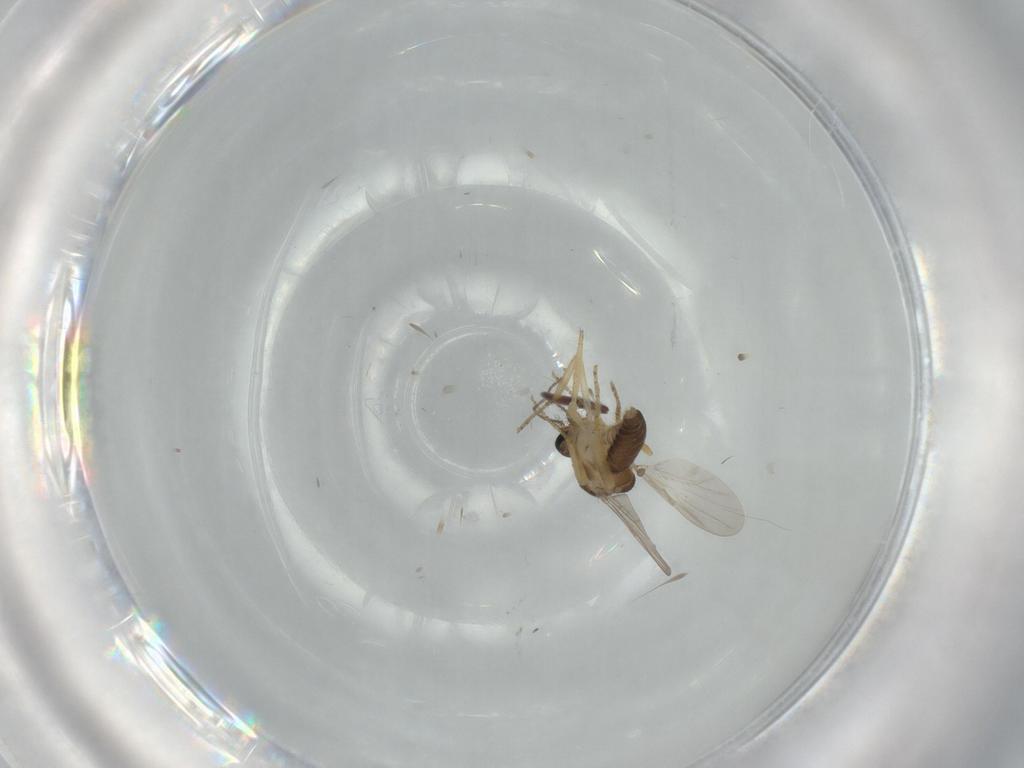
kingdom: Animalia
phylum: Arthropoda
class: Insecta
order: Diptera
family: Ceratopogonidae
